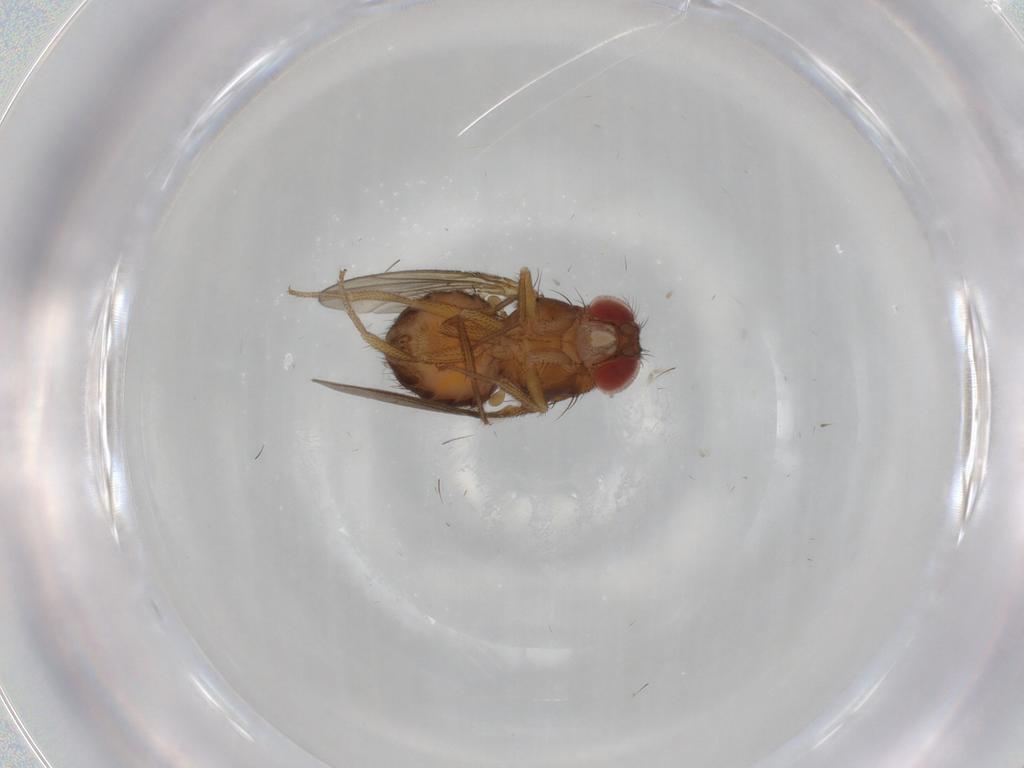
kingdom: Animalia
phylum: Arthropoda
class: Insecta
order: Diptera
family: Drosophilidae
